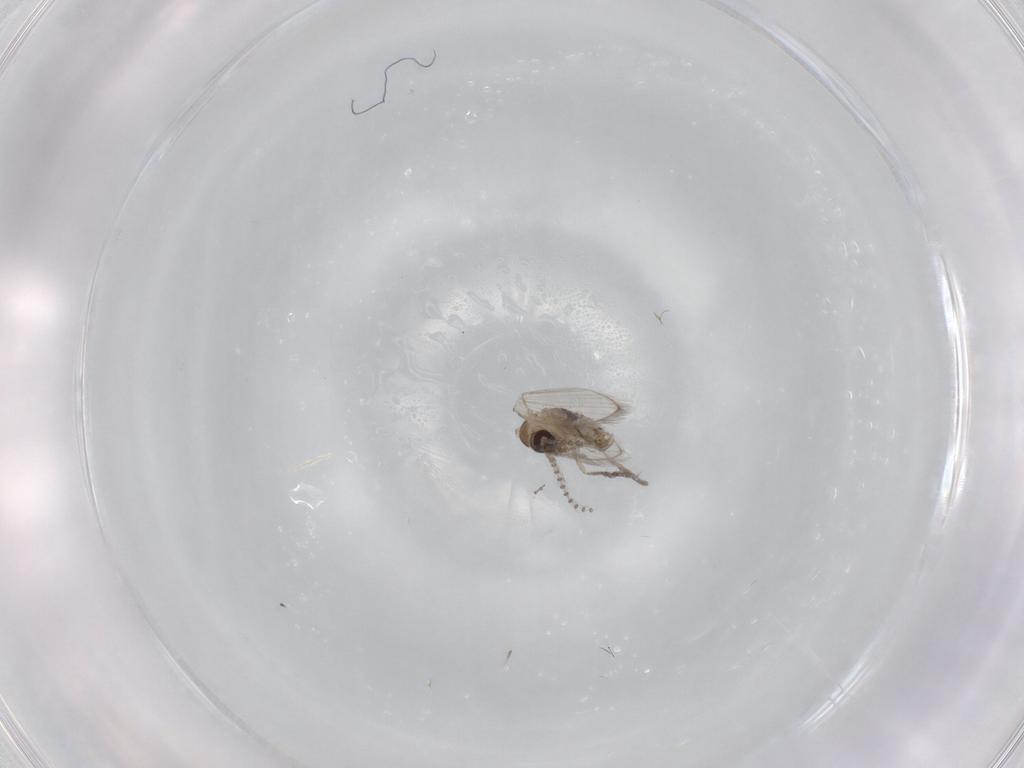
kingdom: Animalia
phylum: Arthropoda
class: Insecta
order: Diptera
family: Psychodidae
